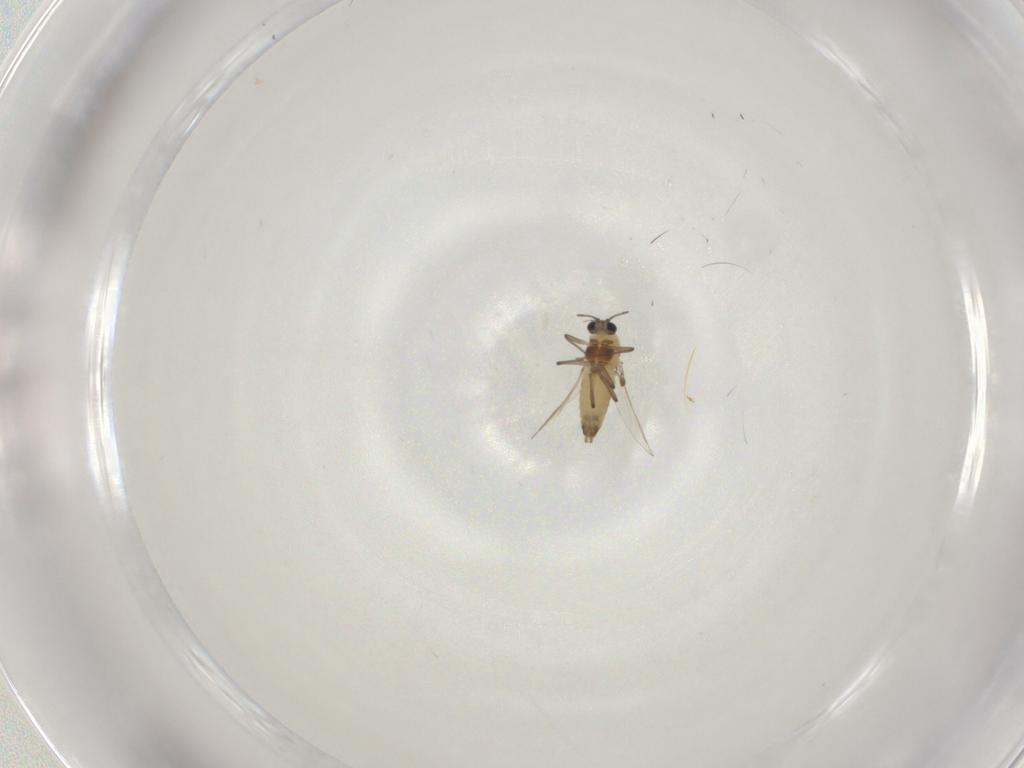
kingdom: Animalia
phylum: Arthropoda
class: Insecta
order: Diptera
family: Chironomidae
